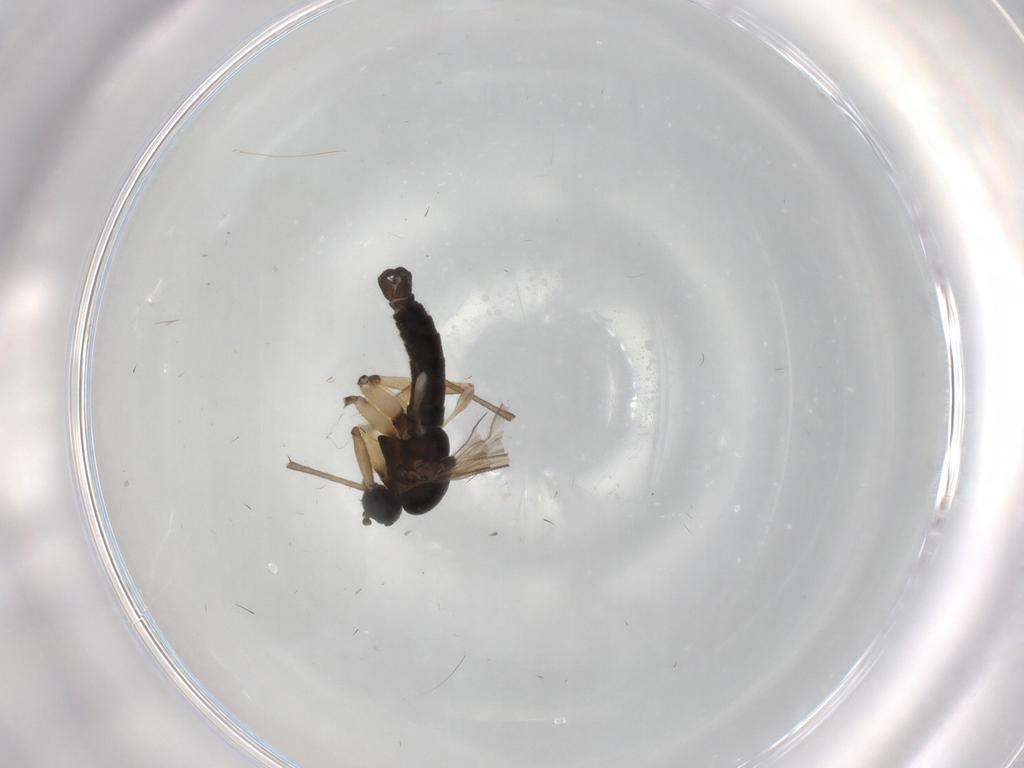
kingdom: Animalia
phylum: Arthropoda
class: Insecta
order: Diptera
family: Sciaridae
